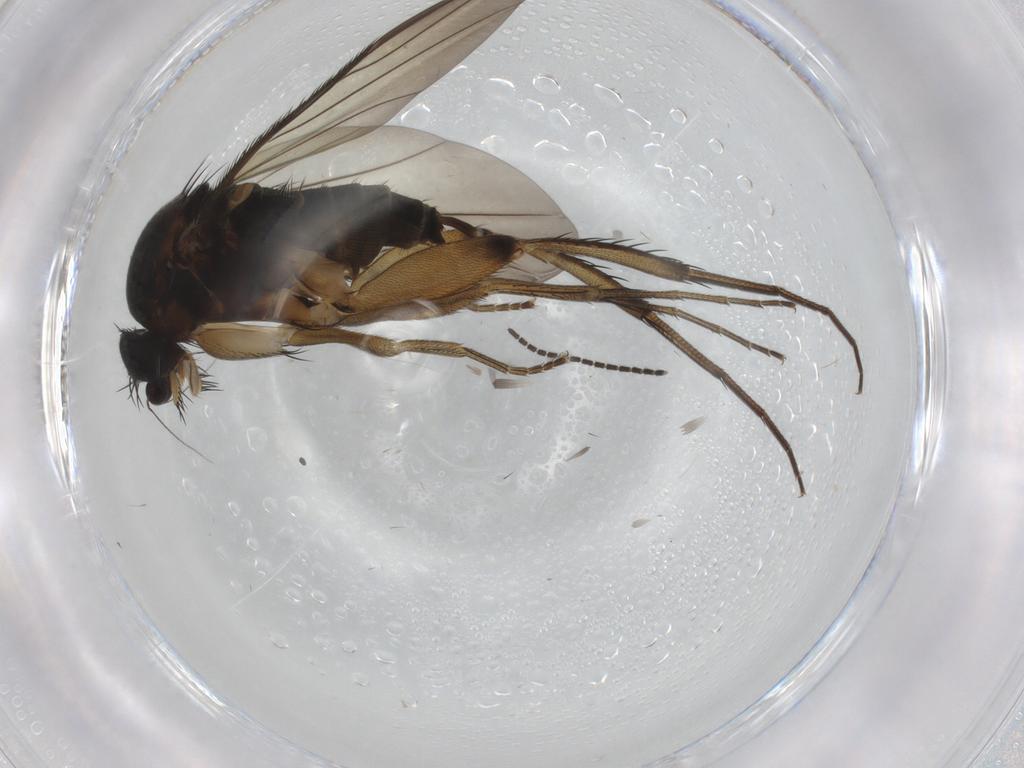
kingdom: Animalia
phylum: Arthropoda
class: Insecta
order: Diptera
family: Phoridae
